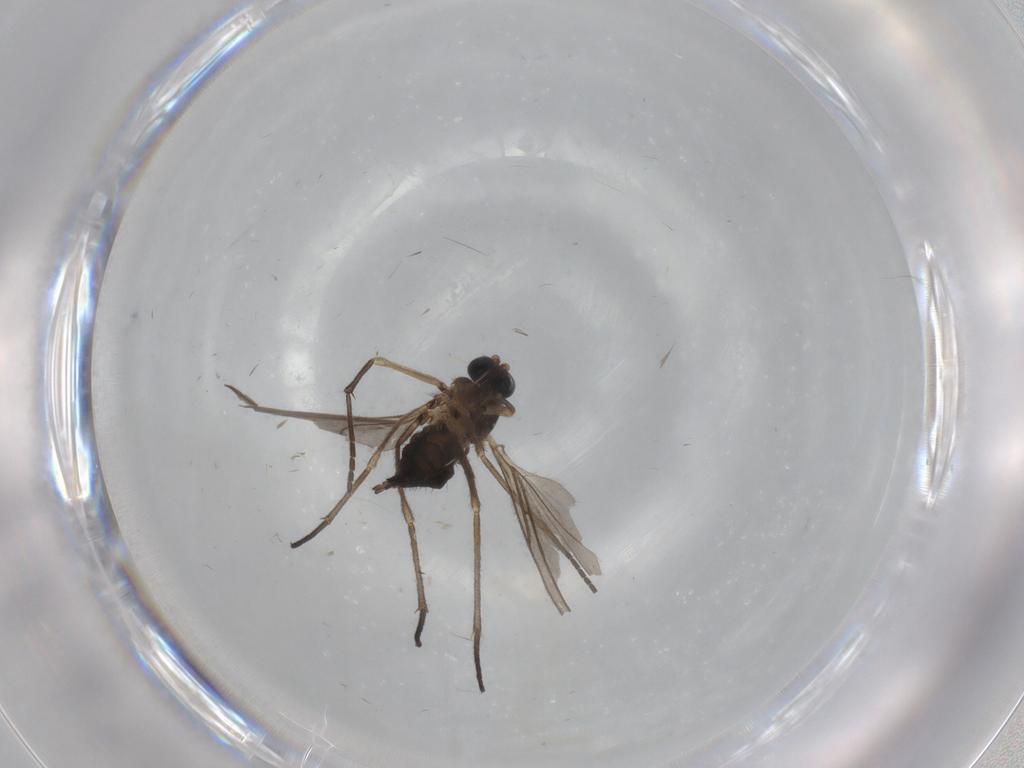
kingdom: Animalia
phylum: Arthropoda
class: Insecta
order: Diptera
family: Sciaridae
